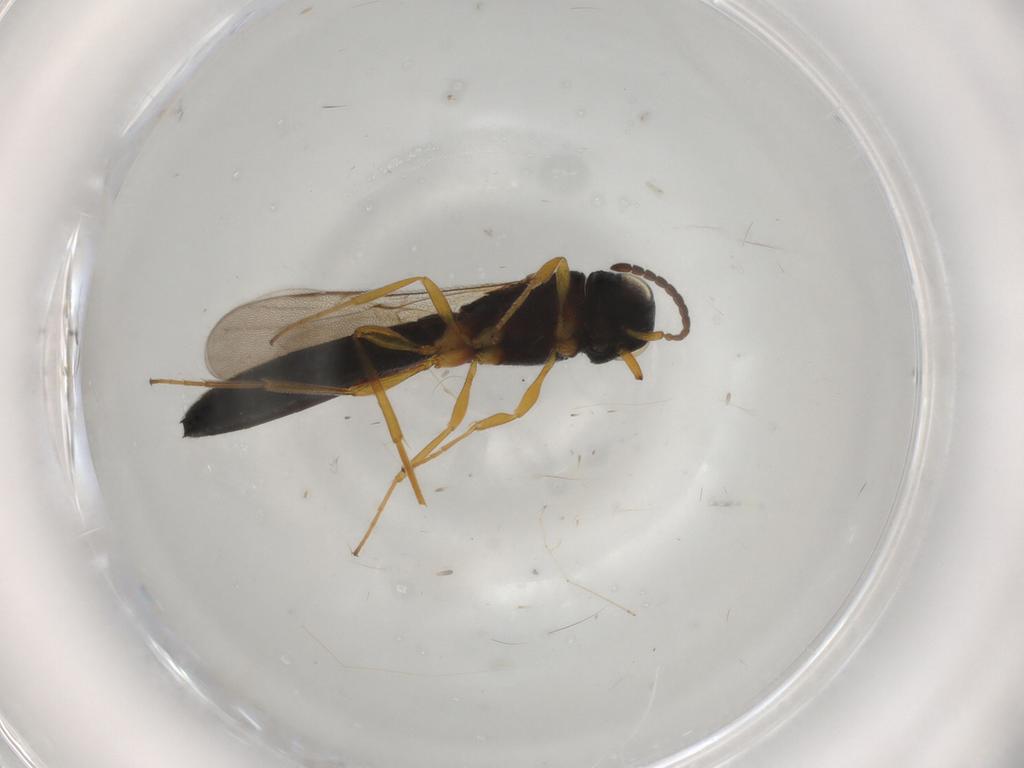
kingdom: Animalia
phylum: Arthropoda
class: Insecta
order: Hymenoptera
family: Scelionidae
